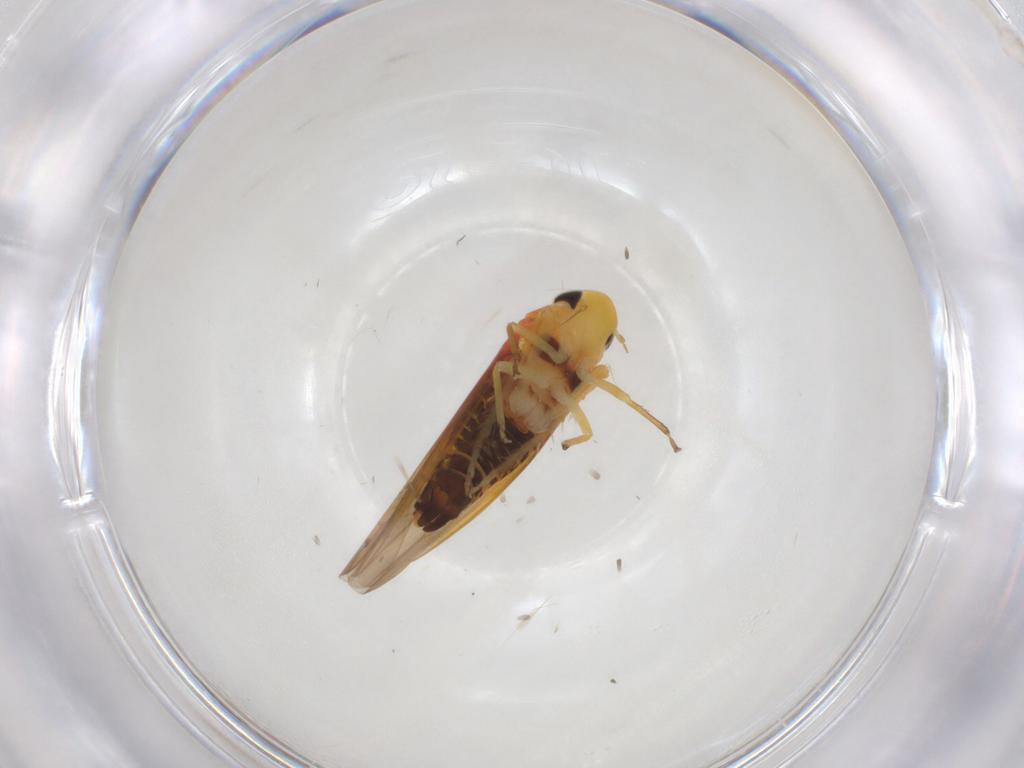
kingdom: Animalia
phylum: Arthropoda
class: Insecta
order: Hemiptera
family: Cicadellidae
